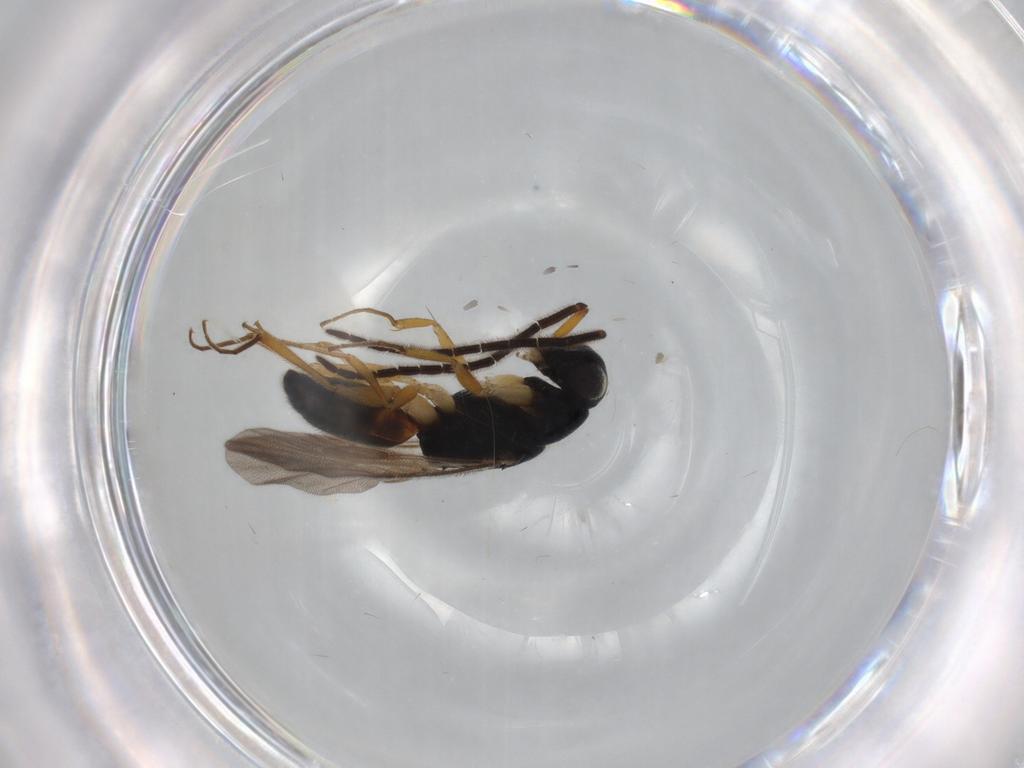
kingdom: Animalia
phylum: Arthropoda
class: Insecta
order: Hymenoptera
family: Chrysididae
